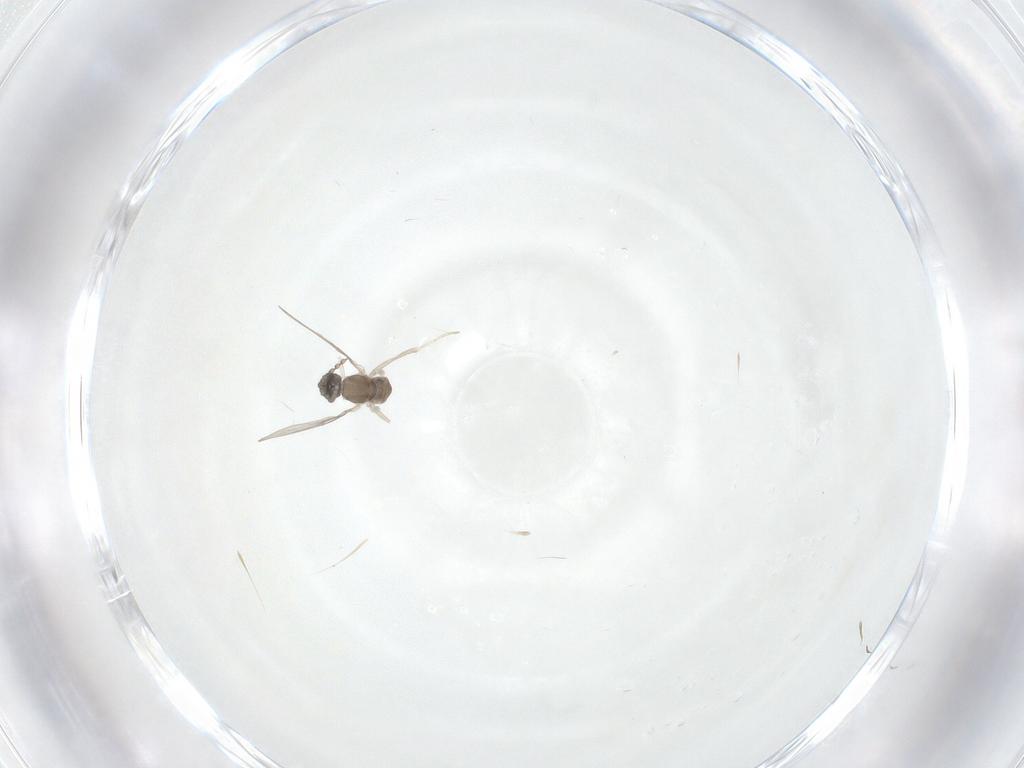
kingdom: Animalia
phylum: Arthropoda
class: Insecta
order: Diptera
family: Cecidomyiidae
